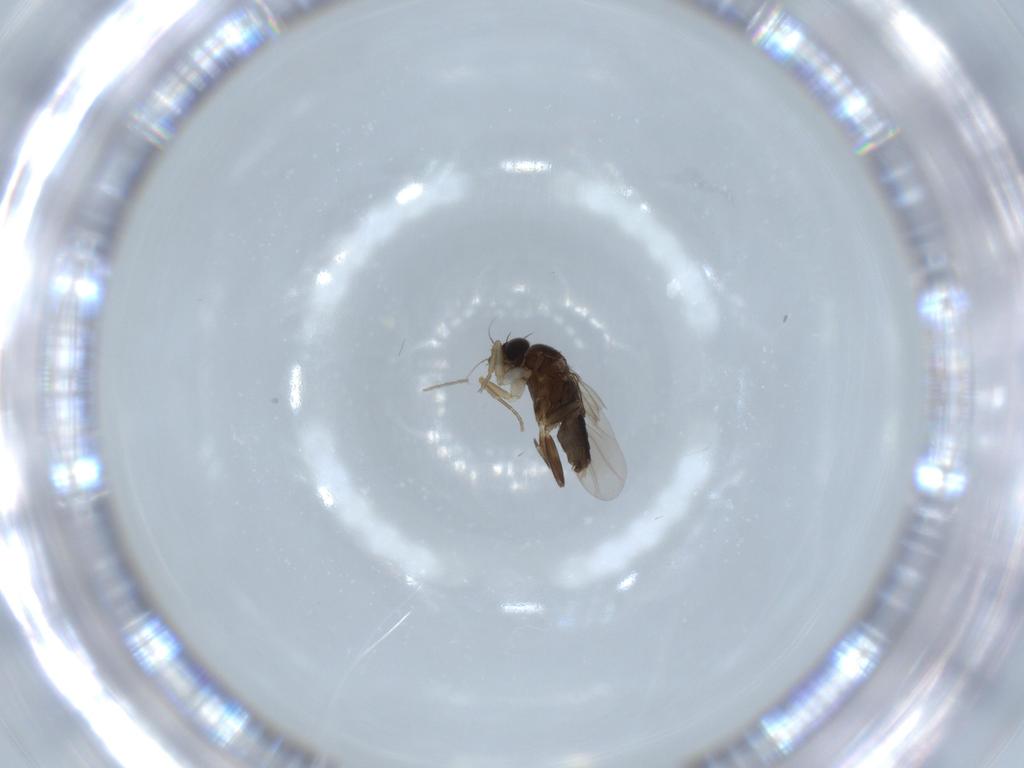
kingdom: Animalia
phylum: Arthropoda
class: Insecta
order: Diptera
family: Phoridae
